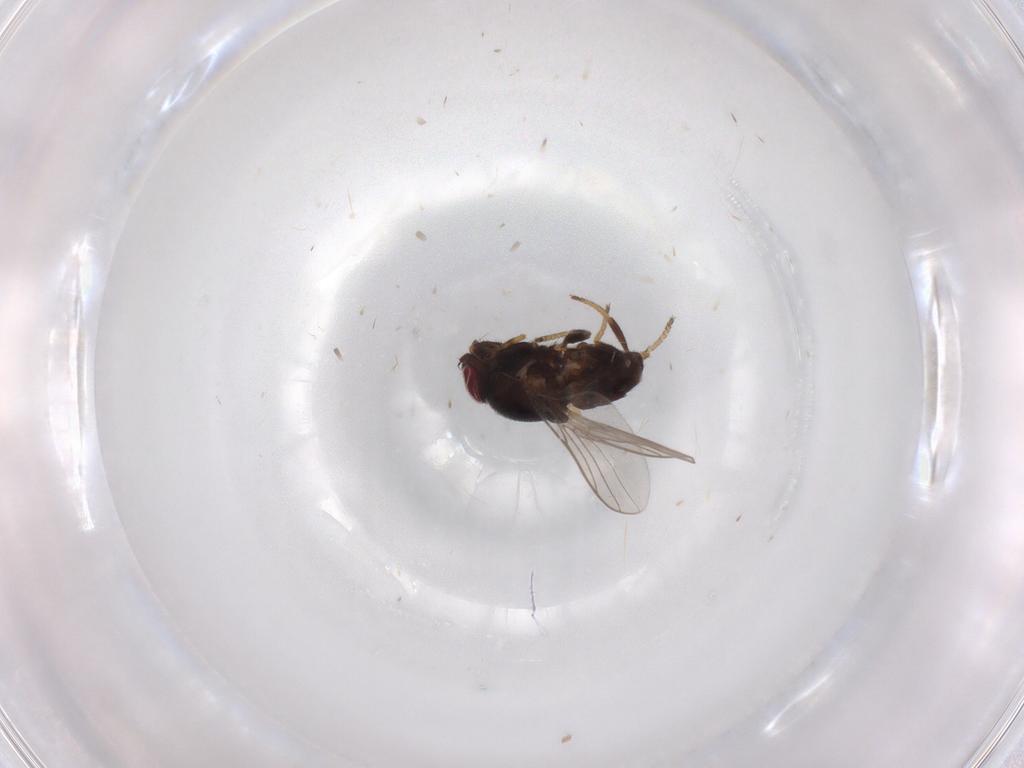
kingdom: Animalia
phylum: Arthropoda
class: Insecta
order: Diptera
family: Chloropidae
